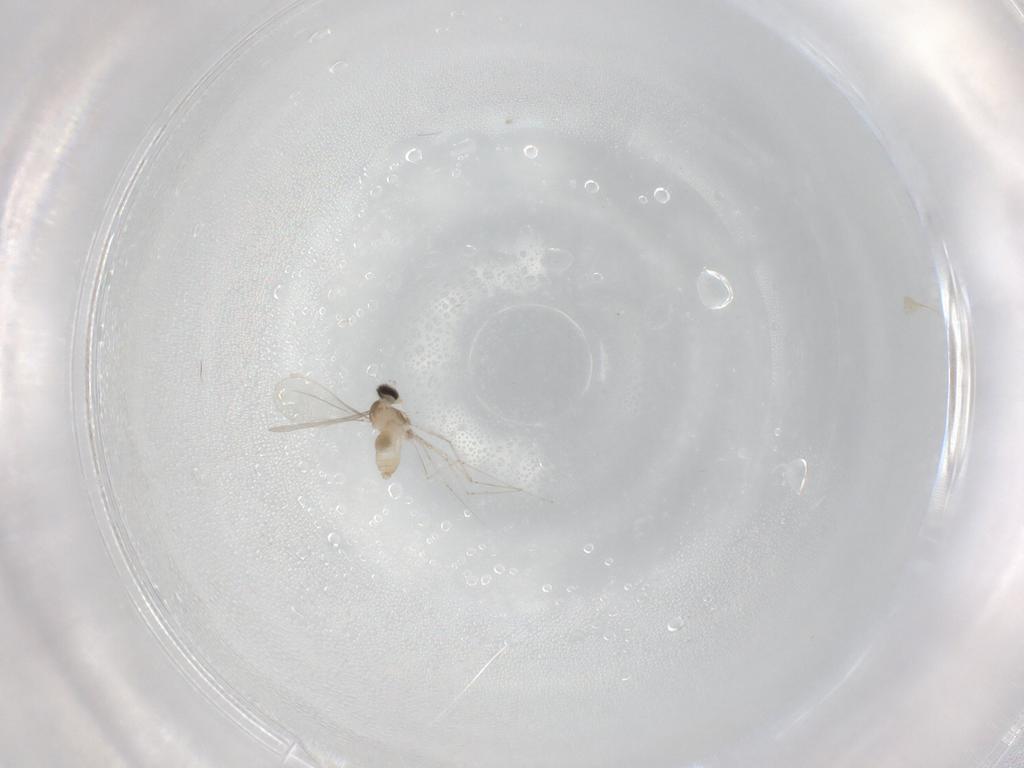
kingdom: Animalia
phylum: Arthropoda
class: Insecta
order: Diptera
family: Cecidomyiidae
